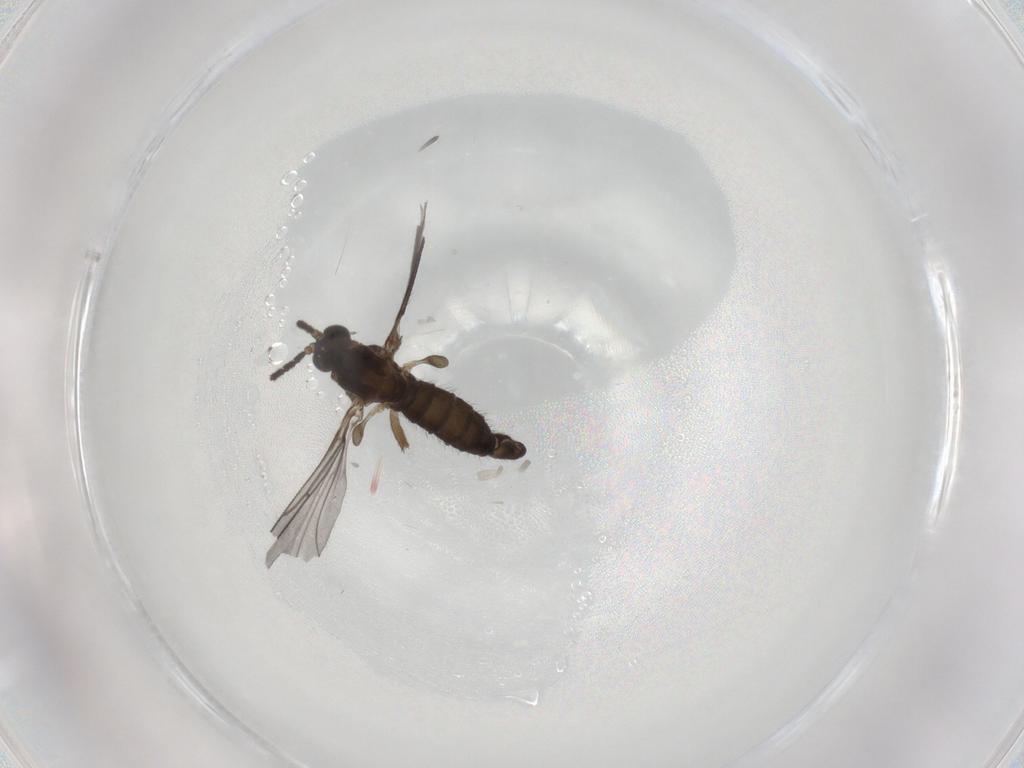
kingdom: Animalia
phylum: Arthropoda
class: Insecta
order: Diptera
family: Sciaridae
